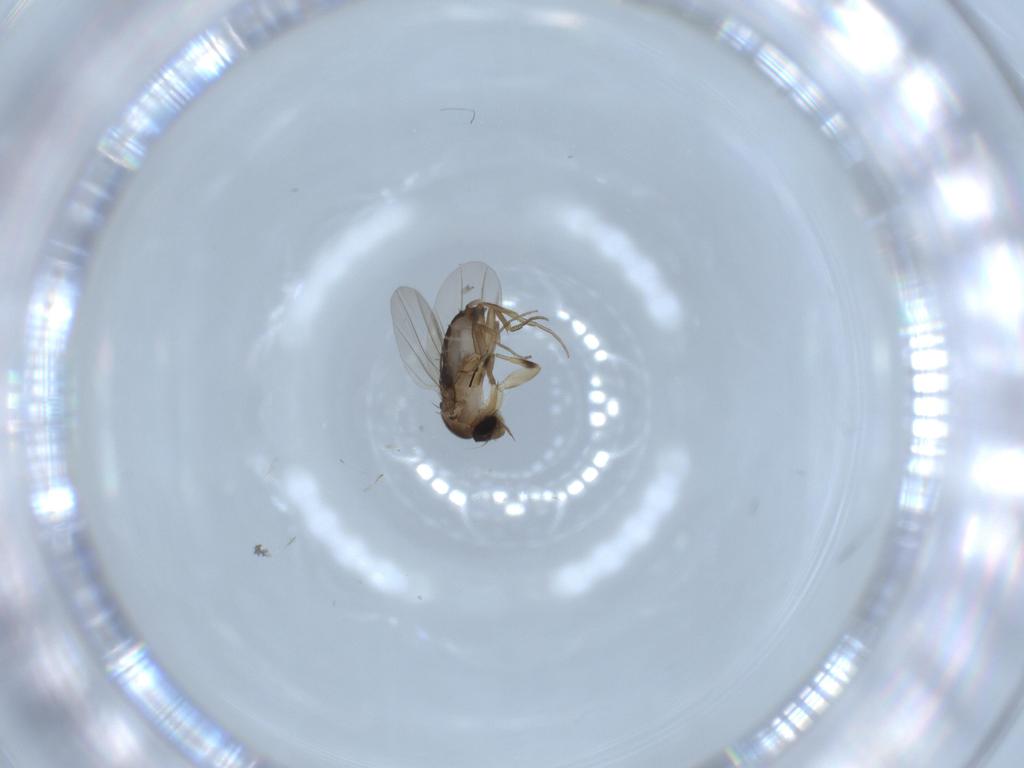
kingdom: Animalia
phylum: Arthropoda
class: Insecta
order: Diptera
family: Phoridae
